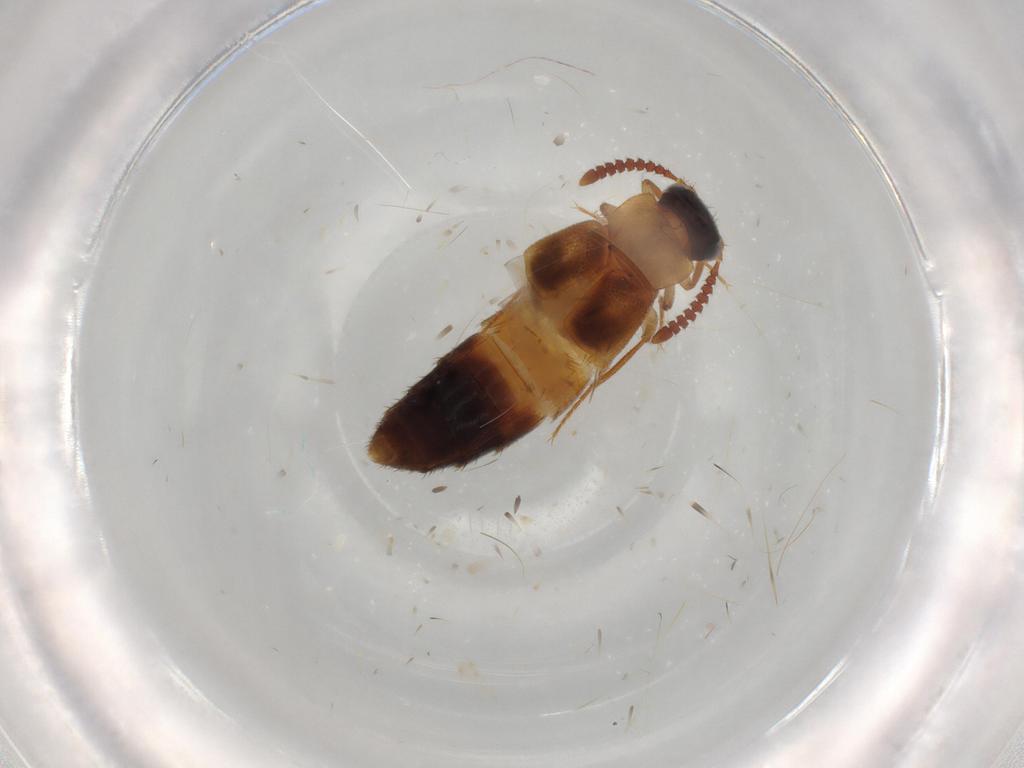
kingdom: Animalia
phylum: Arthropoda
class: Insecta
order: Coleoptera
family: Staphylinidae
